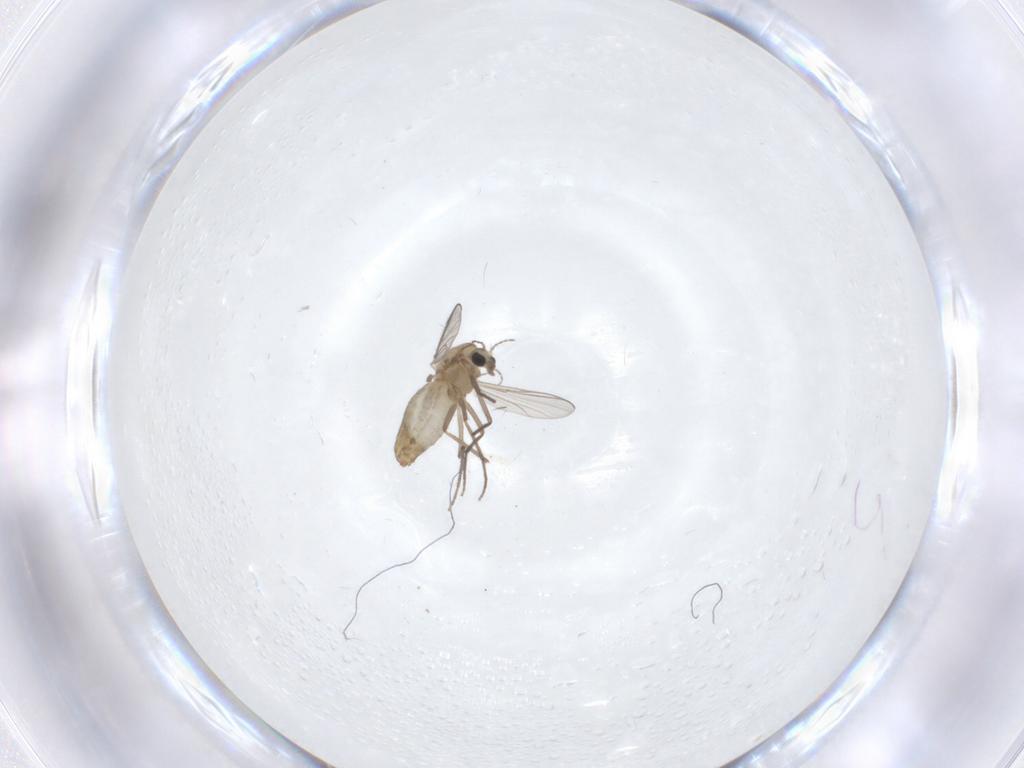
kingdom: Animalia
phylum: Arthropoda
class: Insecta
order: Diptera
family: Chironomidae
